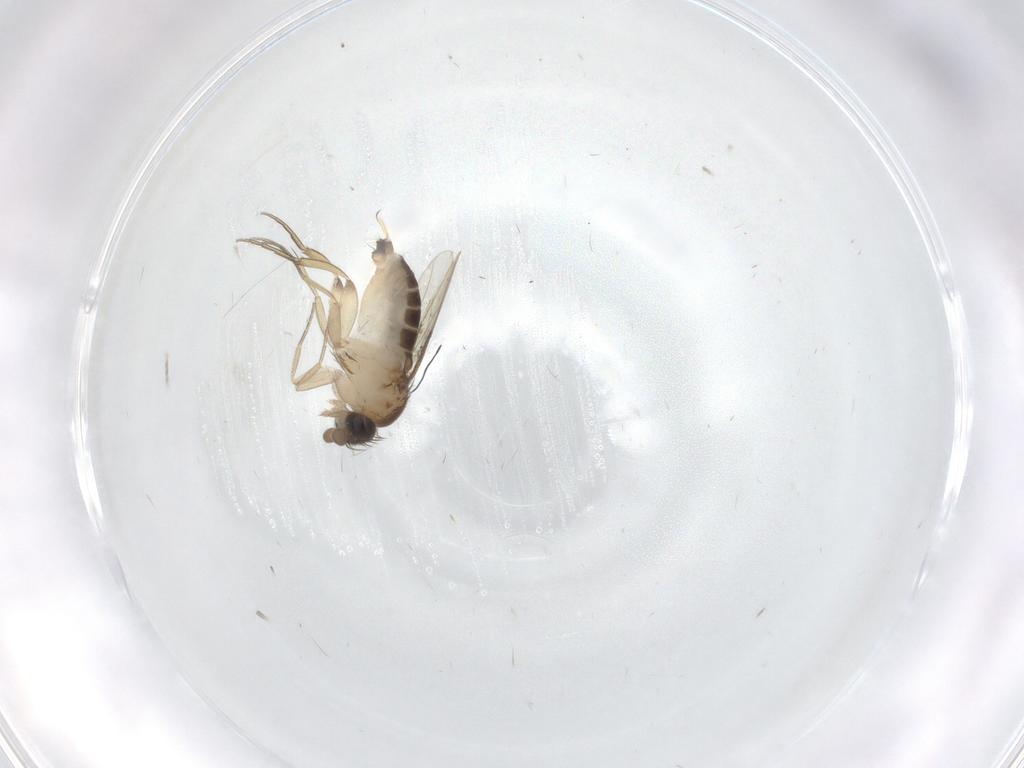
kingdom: Animalia
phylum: Arthropoda
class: Insecta
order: Diptera
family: Phoridae
